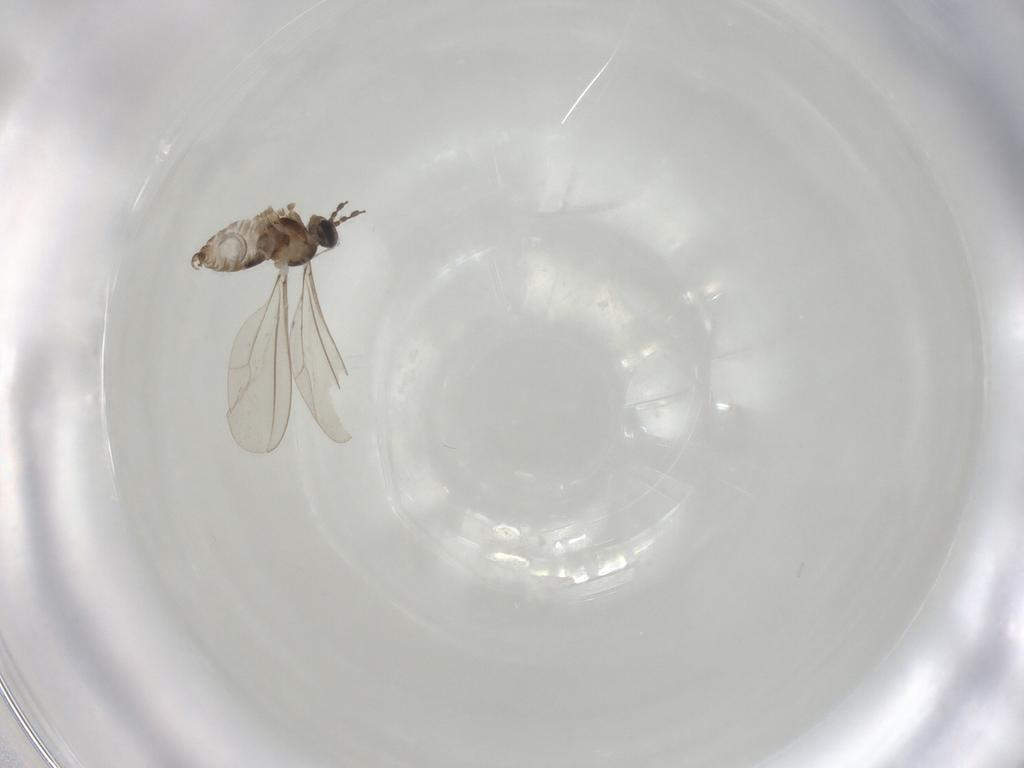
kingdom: Animalia
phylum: Arthropoda
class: Insecta
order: Diptera
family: Cecidomyiidae
